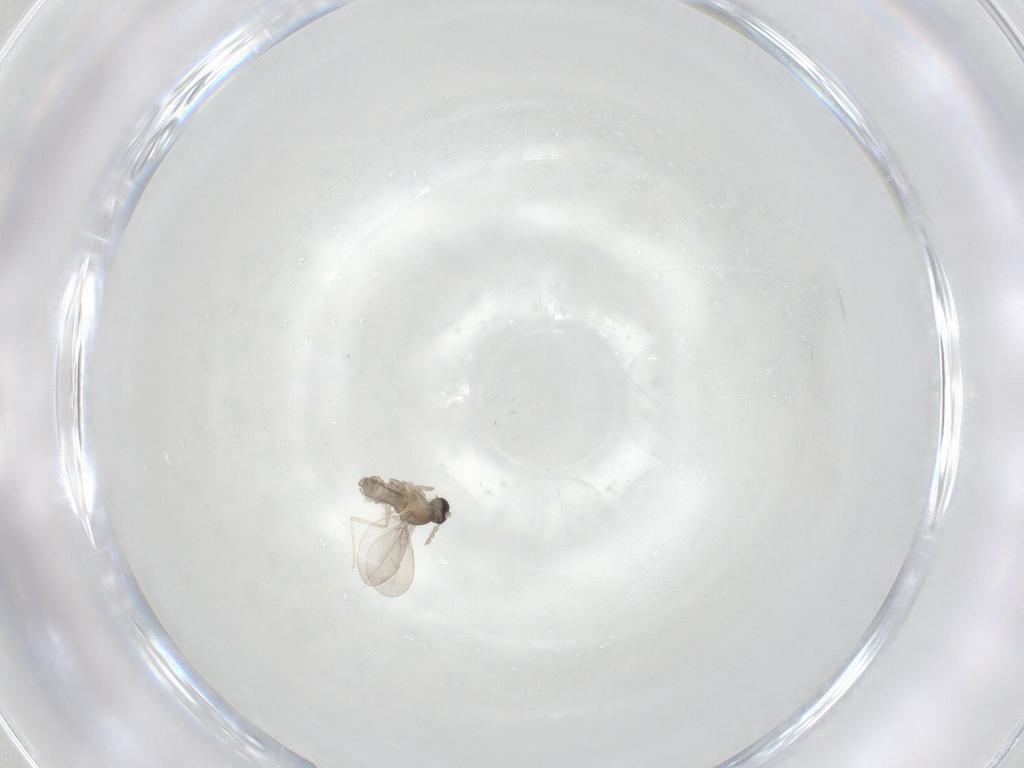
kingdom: Animalia
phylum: Arthropoda
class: Insecta
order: Diptera
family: Cecidomyiidae
